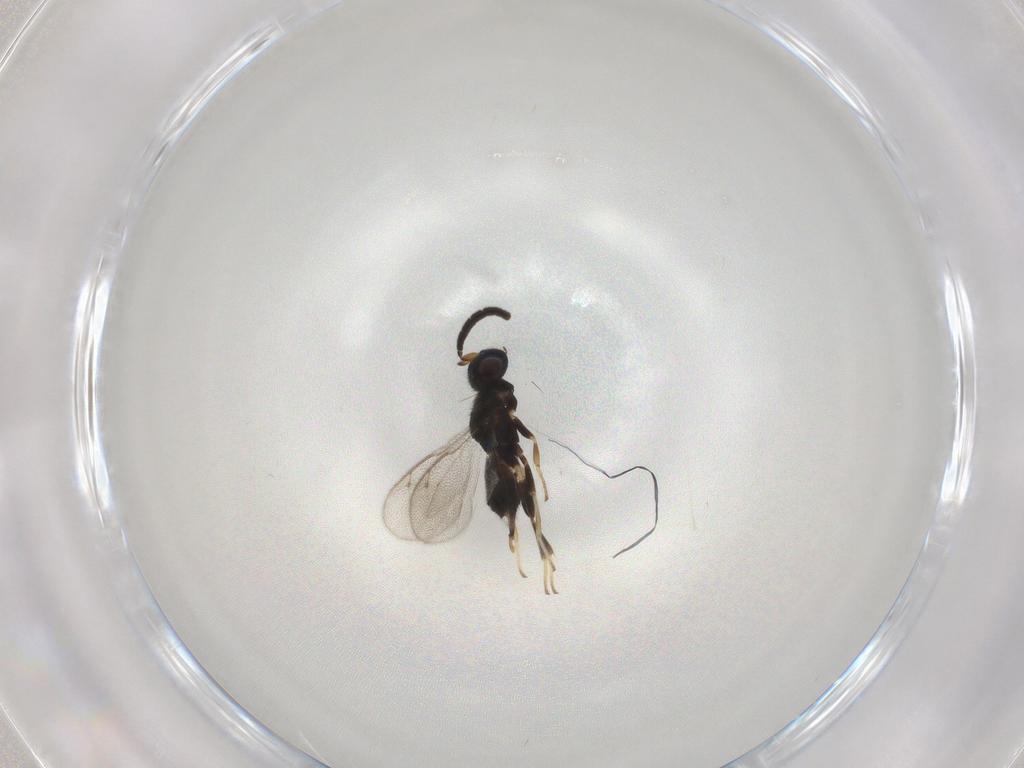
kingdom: Animalia
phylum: Arthropoda
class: Insecta
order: Hymenoptera
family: Eupelmidae
